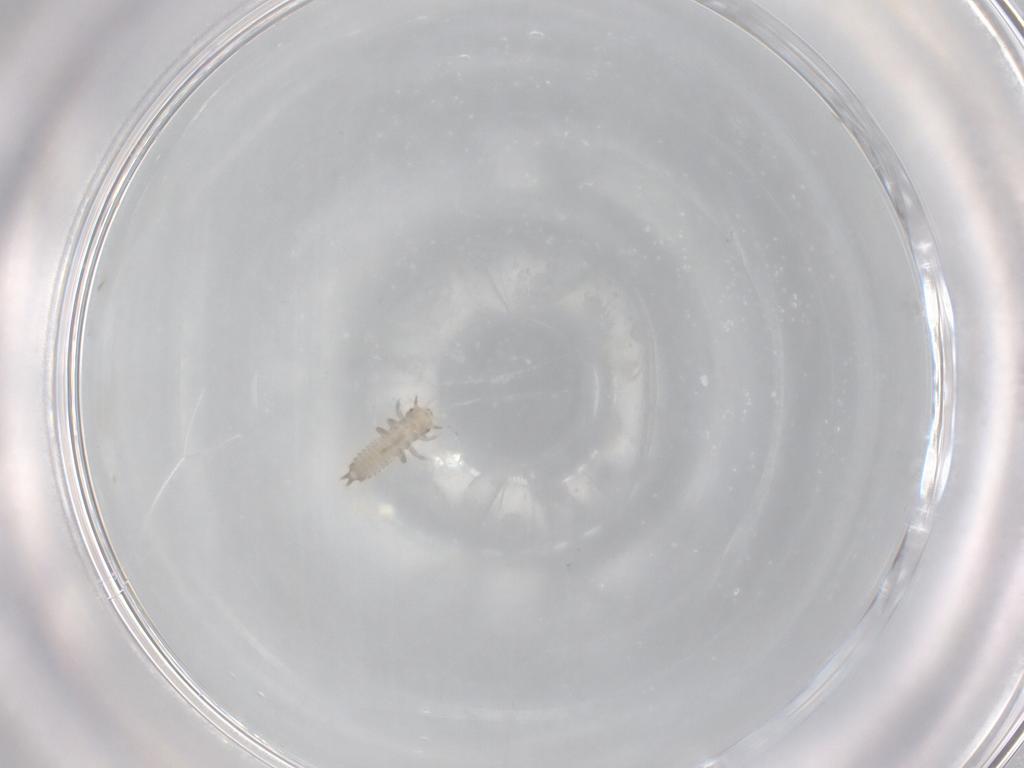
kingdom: Animalia
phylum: Arthropoda
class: Insecta
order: Coleoptera
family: Phalacridae
